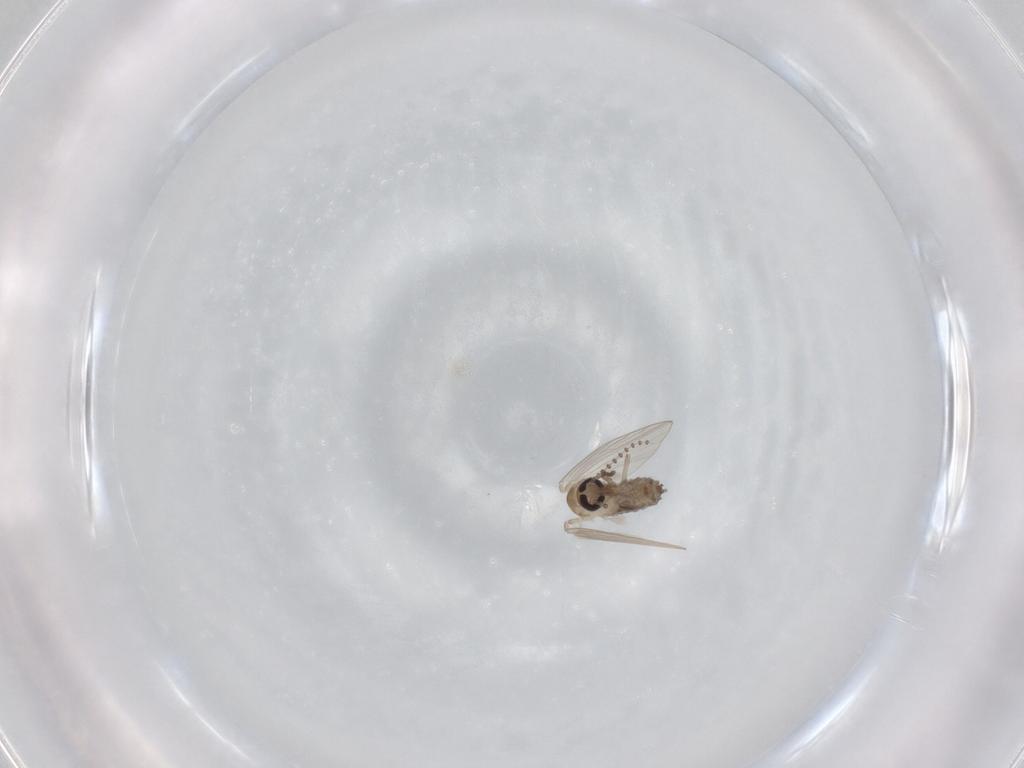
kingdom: Animalia
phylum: Arthropoda
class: Insecta
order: Diptera
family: Psychodidae
